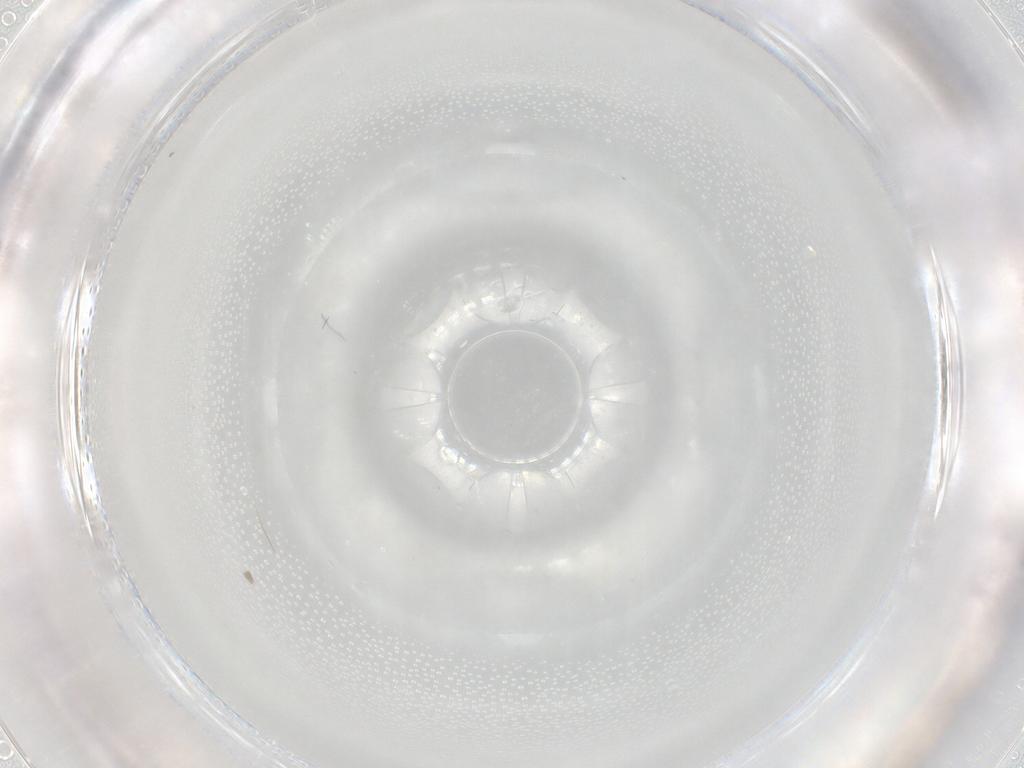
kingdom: Animalia
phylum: Arthropoda
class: Insecta
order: Diptera
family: Cecidomyiidae
